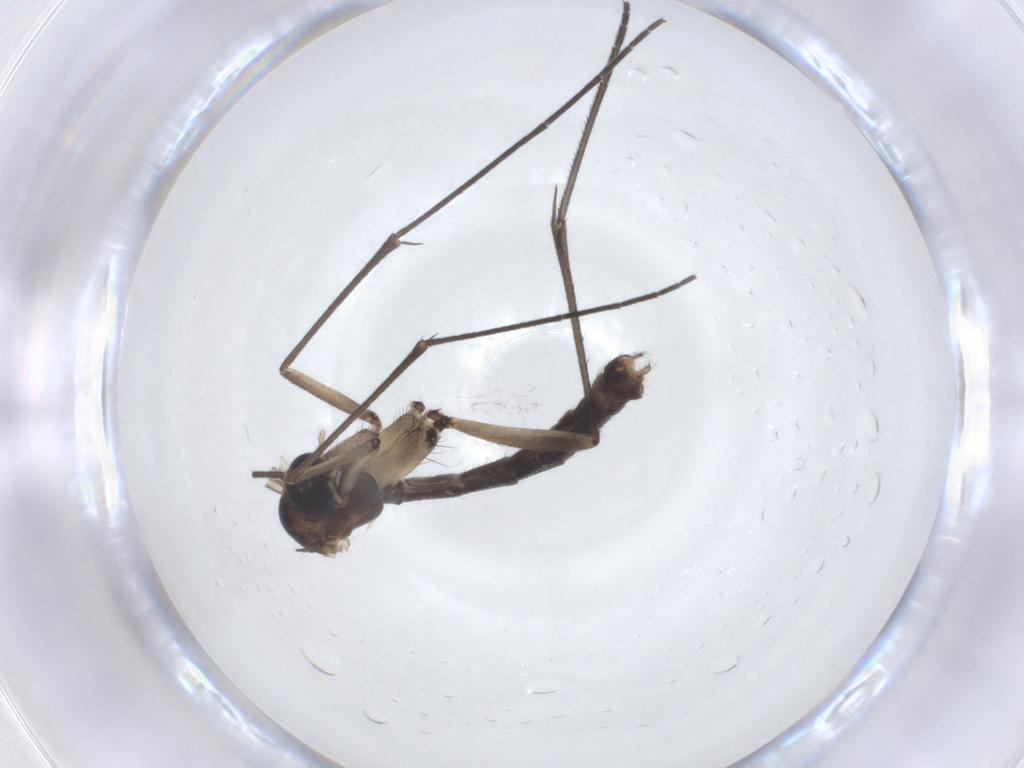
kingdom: Animalia
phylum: Arthropoda
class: Insecta
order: Diptera
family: Mycetophilidae
